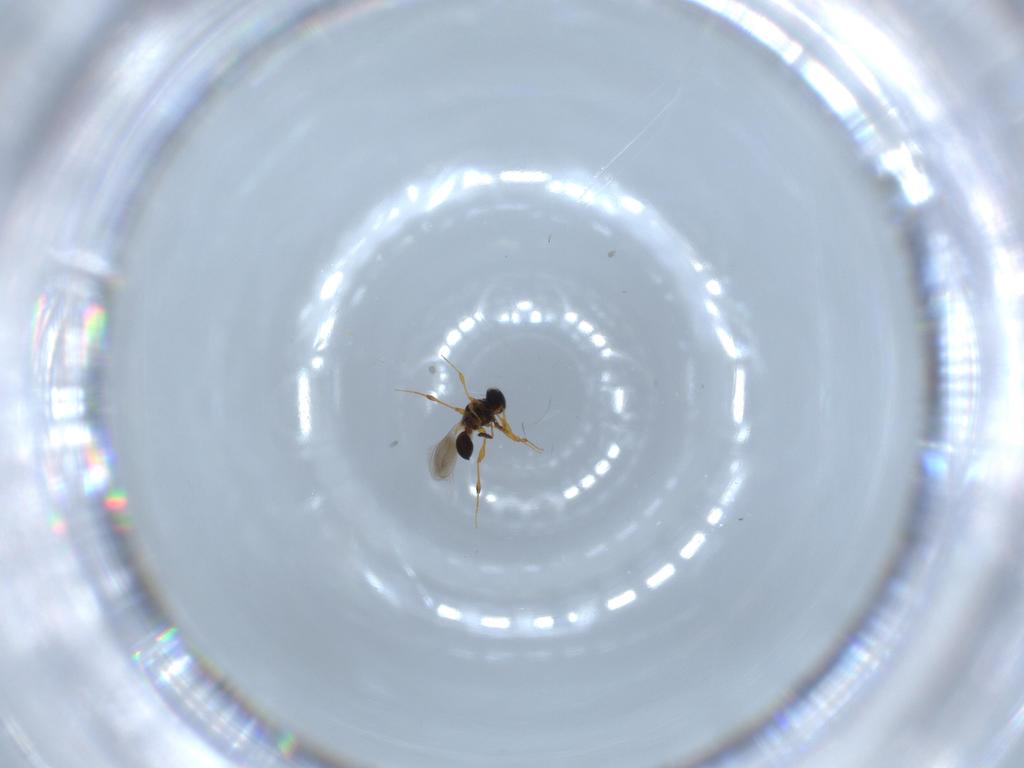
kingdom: Animalia
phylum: Arthropoda
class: Insecta
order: Hymenoptera
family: Platygastridae
